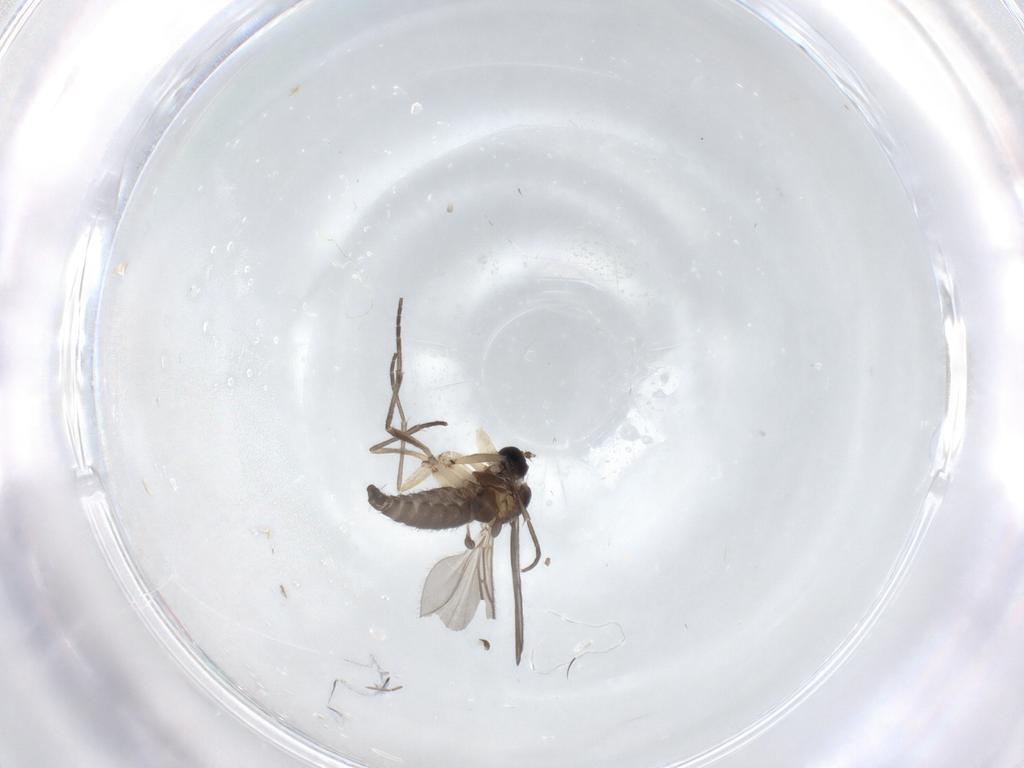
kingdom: Animalia
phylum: Arthropoda
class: Insecta
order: Diptera
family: Sciaridae
